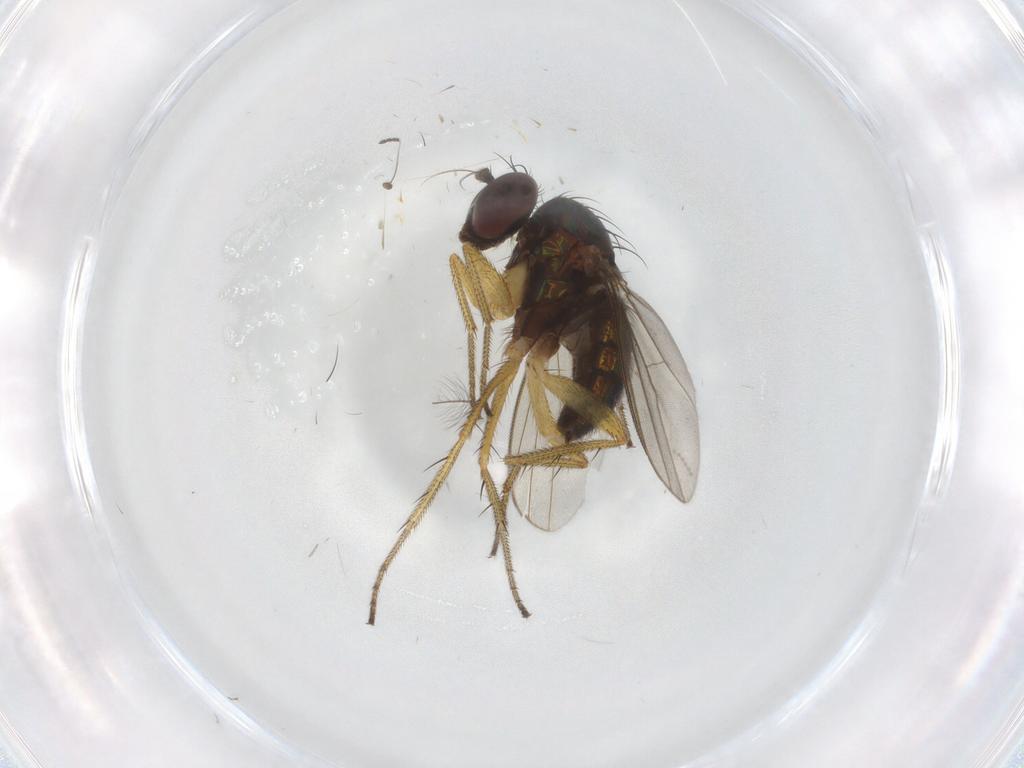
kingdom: Animalia
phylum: Arthropoda
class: Insecta
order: Diptera
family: Dolichopodidae
